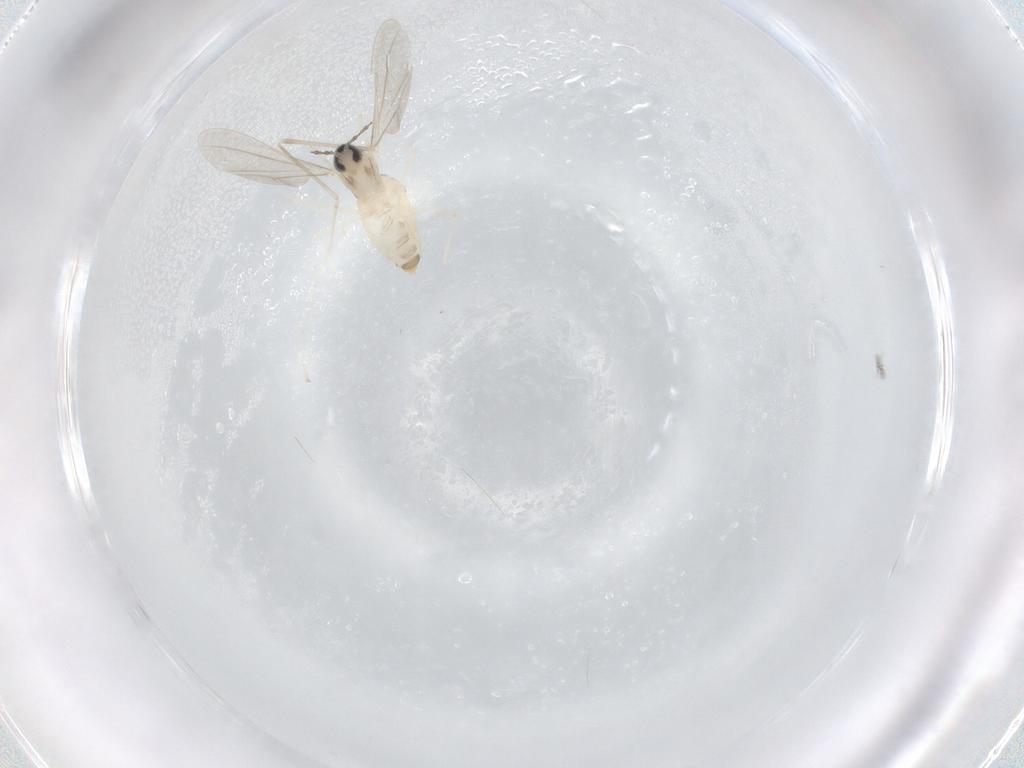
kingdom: Animalia
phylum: Arthropoda
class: Insecta
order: Diptera
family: Cecidomyiidae
